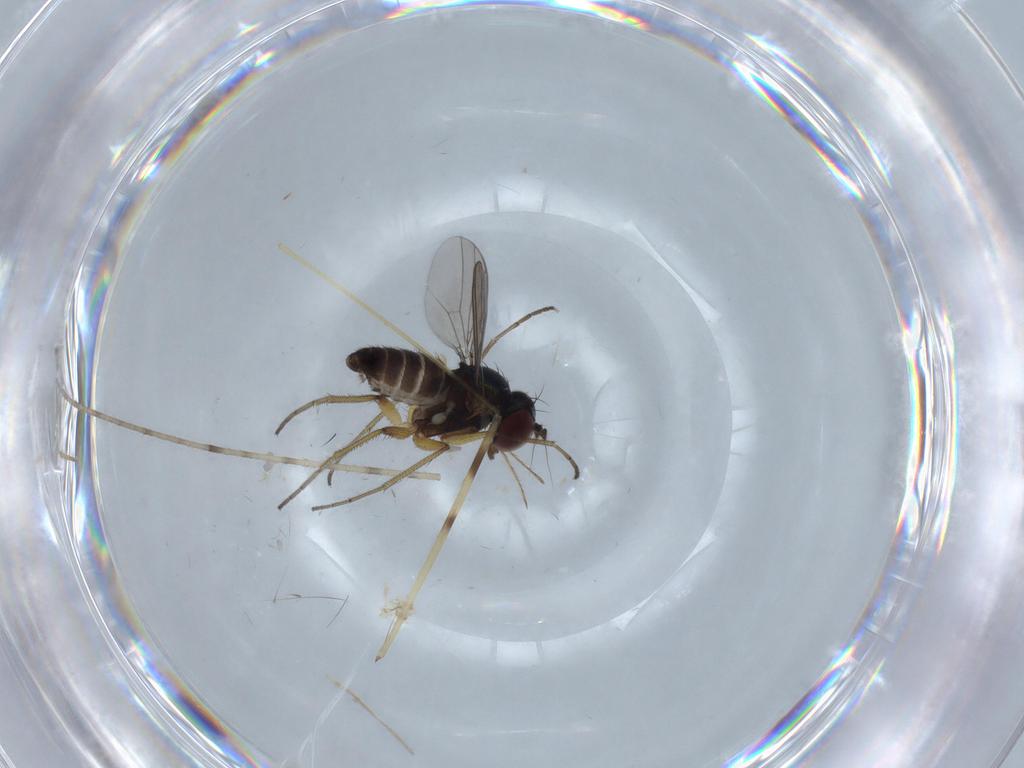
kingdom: Animalia
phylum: Arthropoda
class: Insecta
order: Diptera
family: Dolichopodidae
